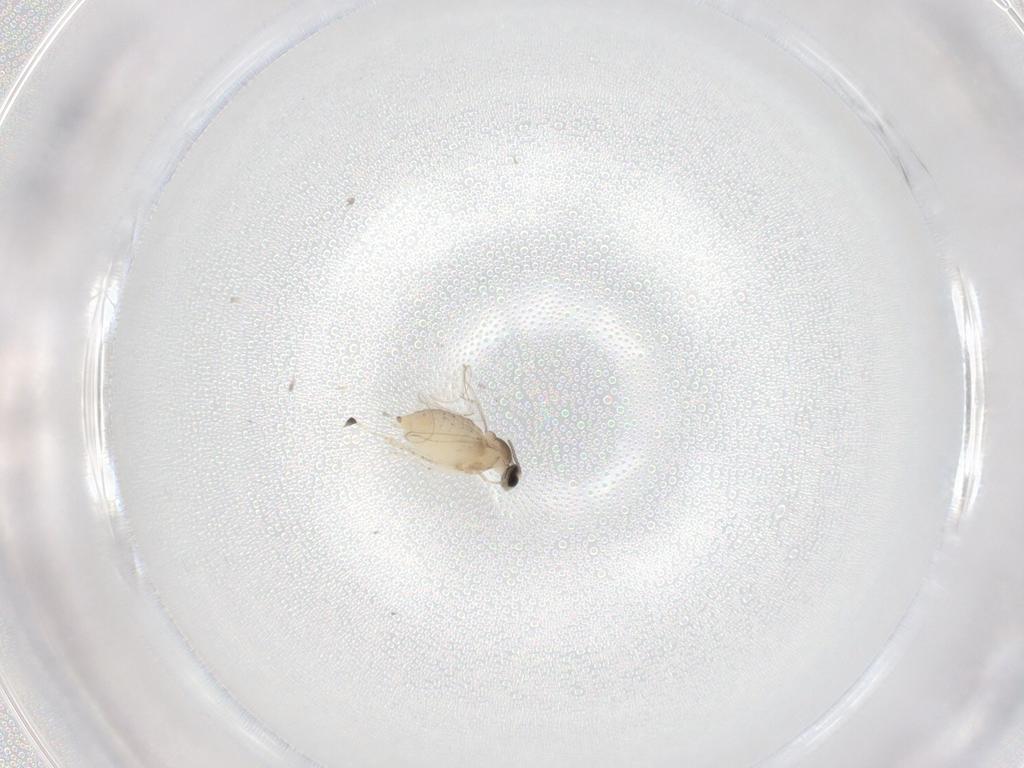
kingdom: Animalia
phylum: Arthropoda
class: Insecta
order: Diptera
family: Cecidomyiidae
